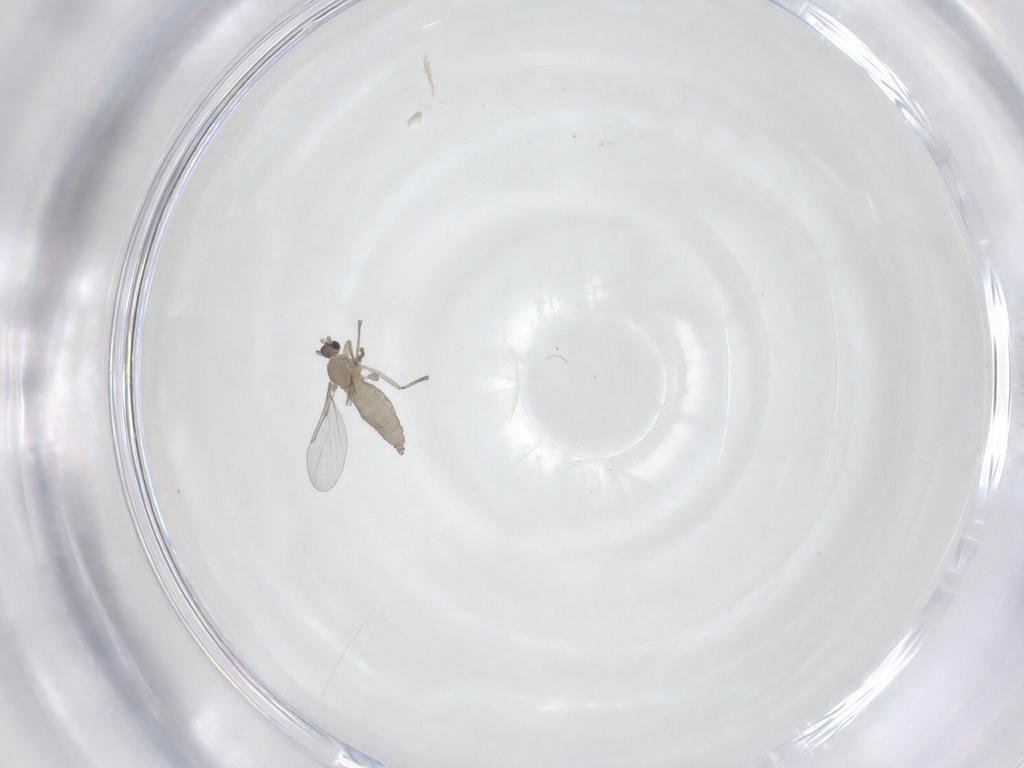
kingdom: Animalia
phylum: Arthropoda
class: Insecta
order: Diptera
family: Cecidomyiidae
